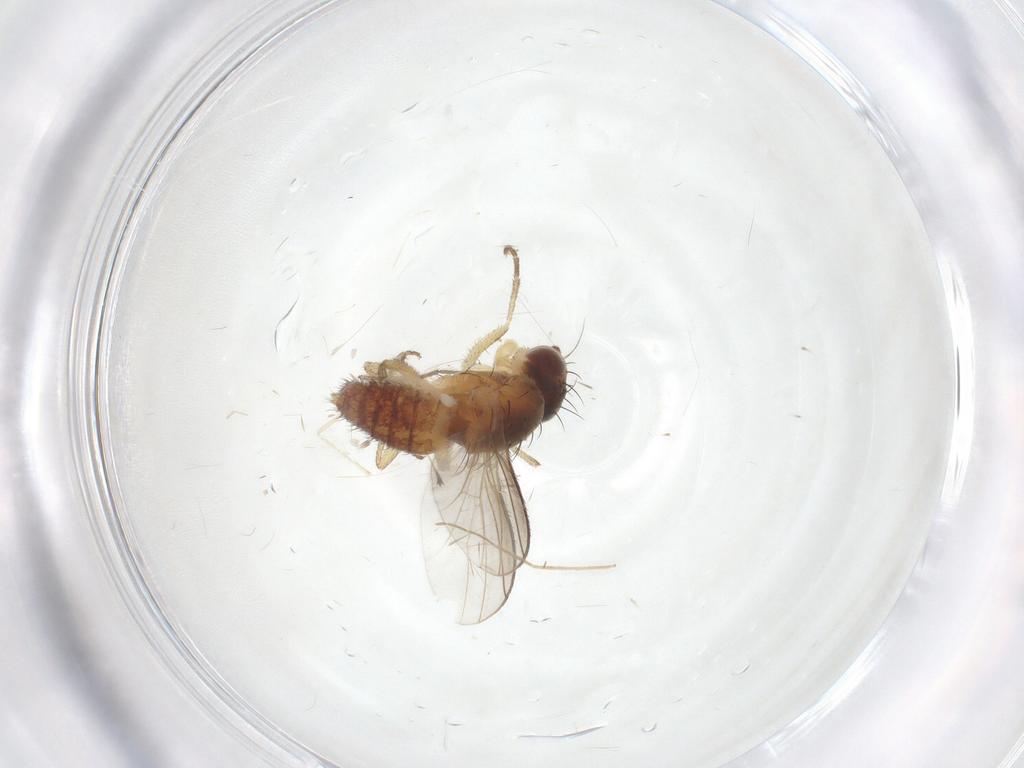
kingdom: Animalia
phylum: Arthropoda
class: Insecta
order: Diptera
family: Heleomyzidae
